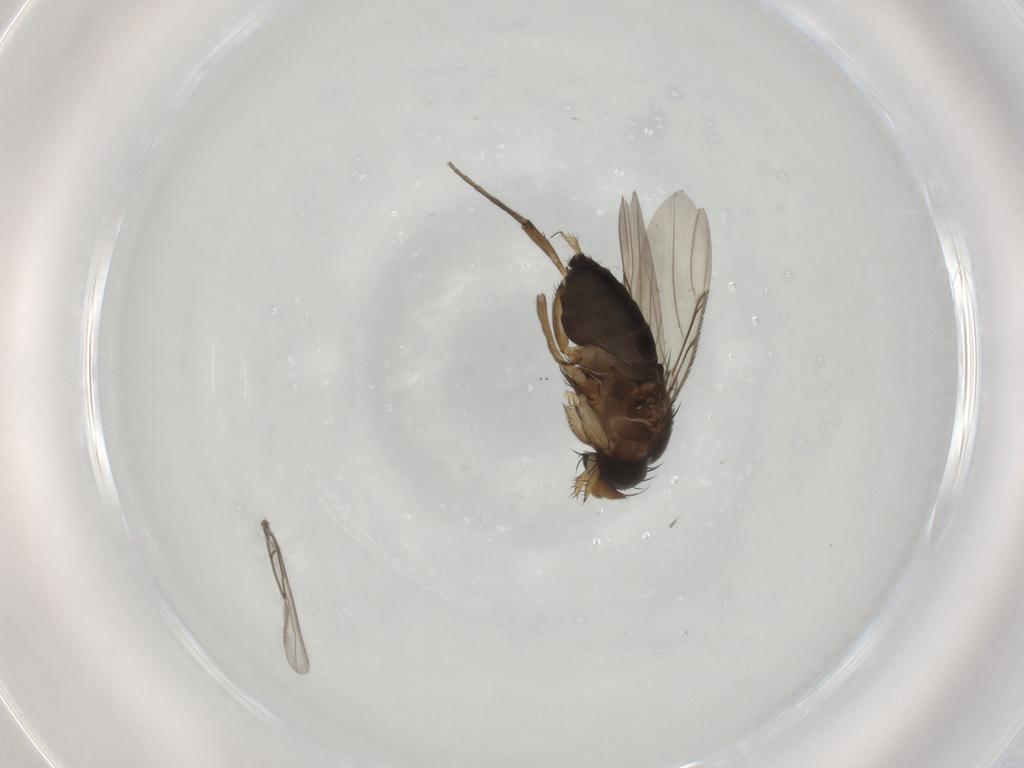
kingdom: Animalia
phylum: Arthropoda
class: Insecta
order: Diptera
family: Phoridae
